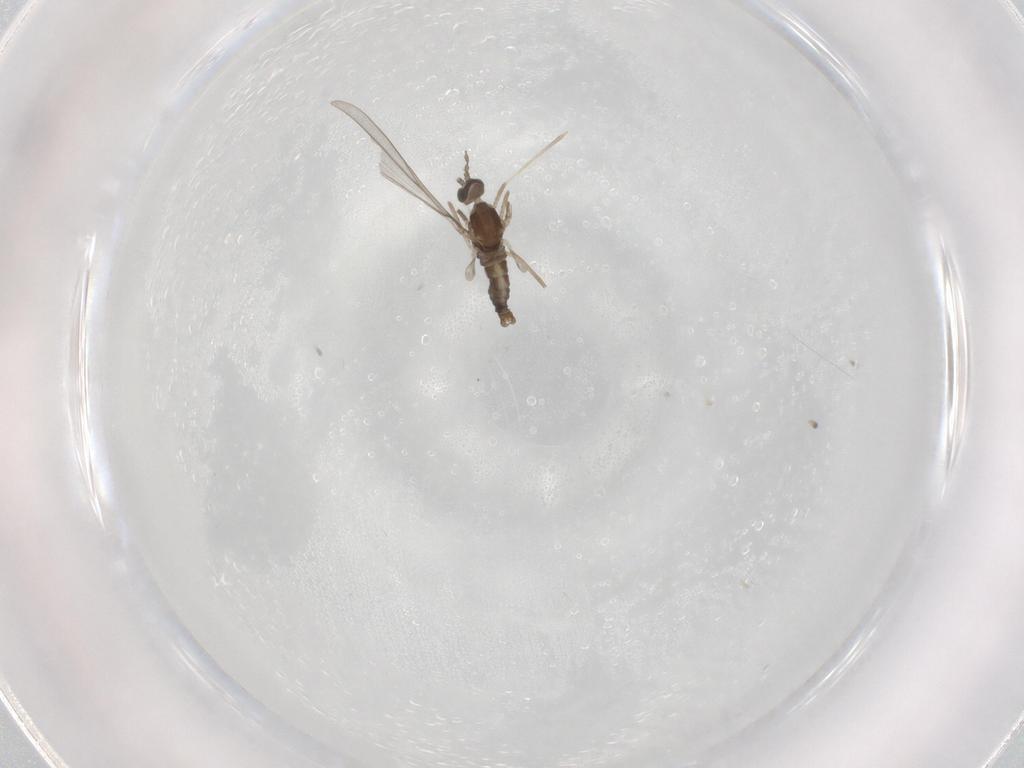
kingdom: Animalia
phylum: Arthropoda
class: Insecta
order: Diptera
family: Cecidomyiidae
